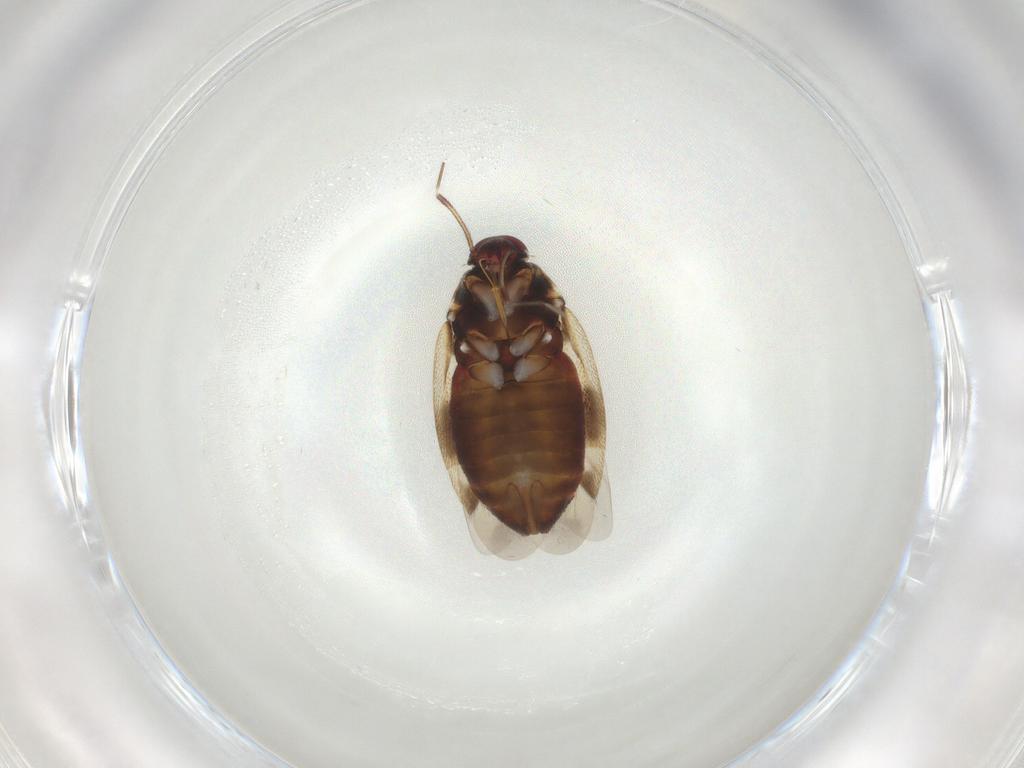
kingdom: Animalia
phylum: Arthropoda
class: Insecta
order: Hemiptera
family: Miridae
